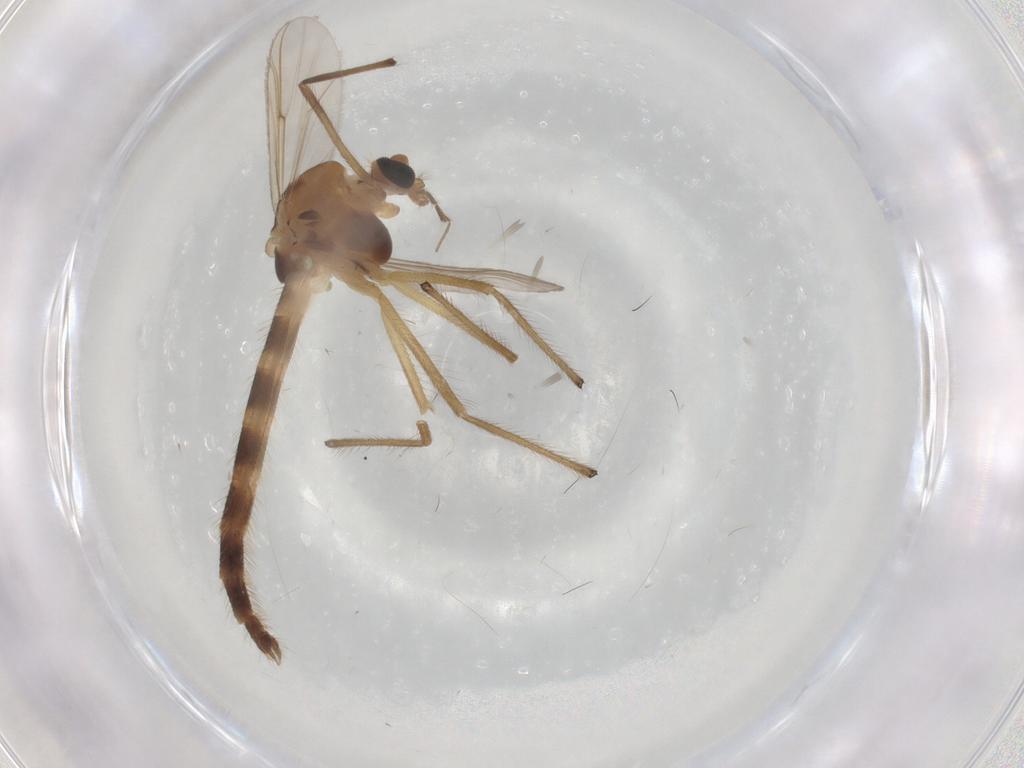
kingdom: Animalia
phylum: Arthropoda
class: Insecta
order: Diptera
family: Chironomidae
